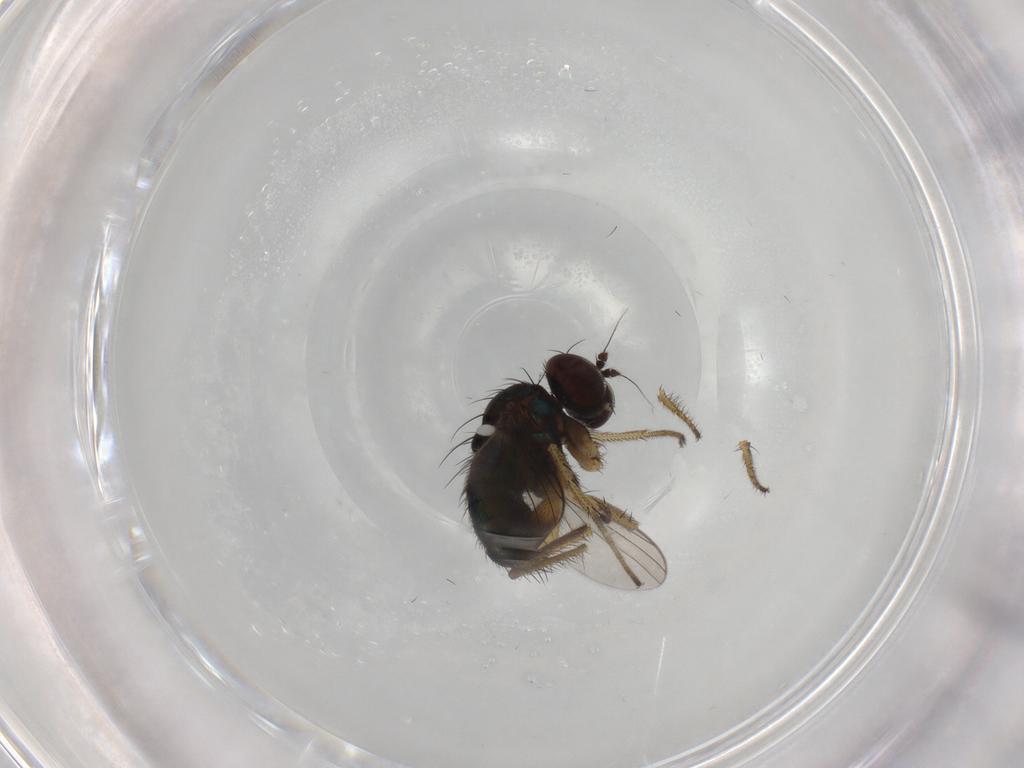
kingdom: Animalia
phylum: Arthropoda
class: Insecta
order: Diptera
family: Dolichopodidae
